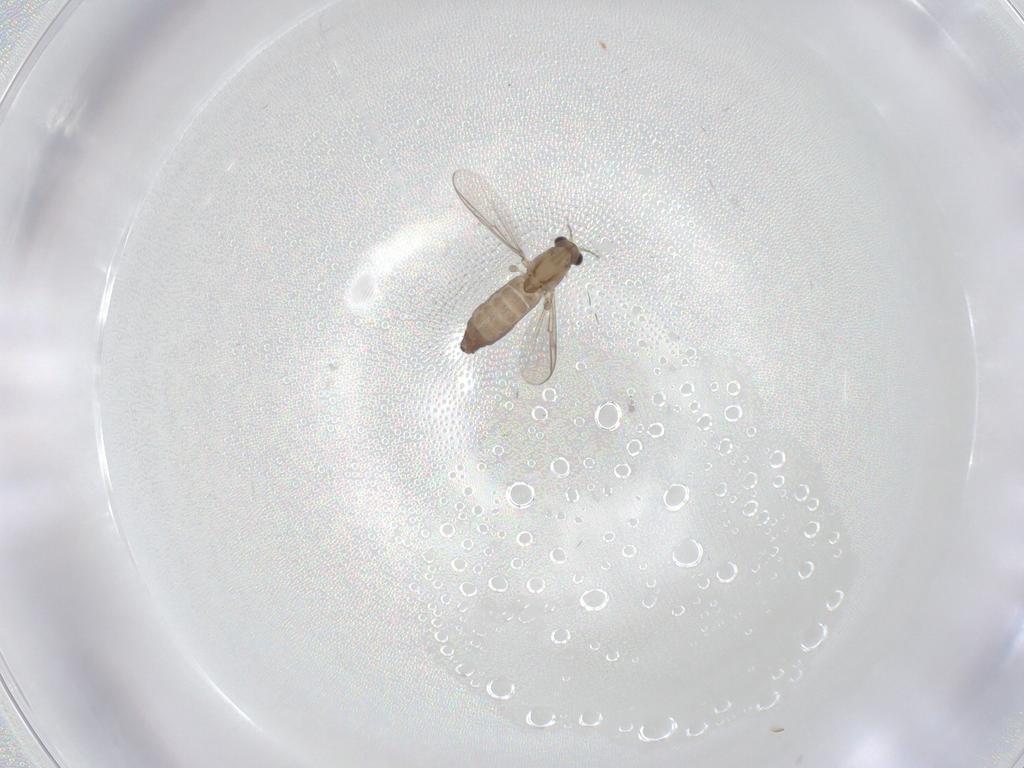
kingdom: Animalia
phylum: Arthropoda
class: Insecta
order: Diptera
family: Chironomidae
